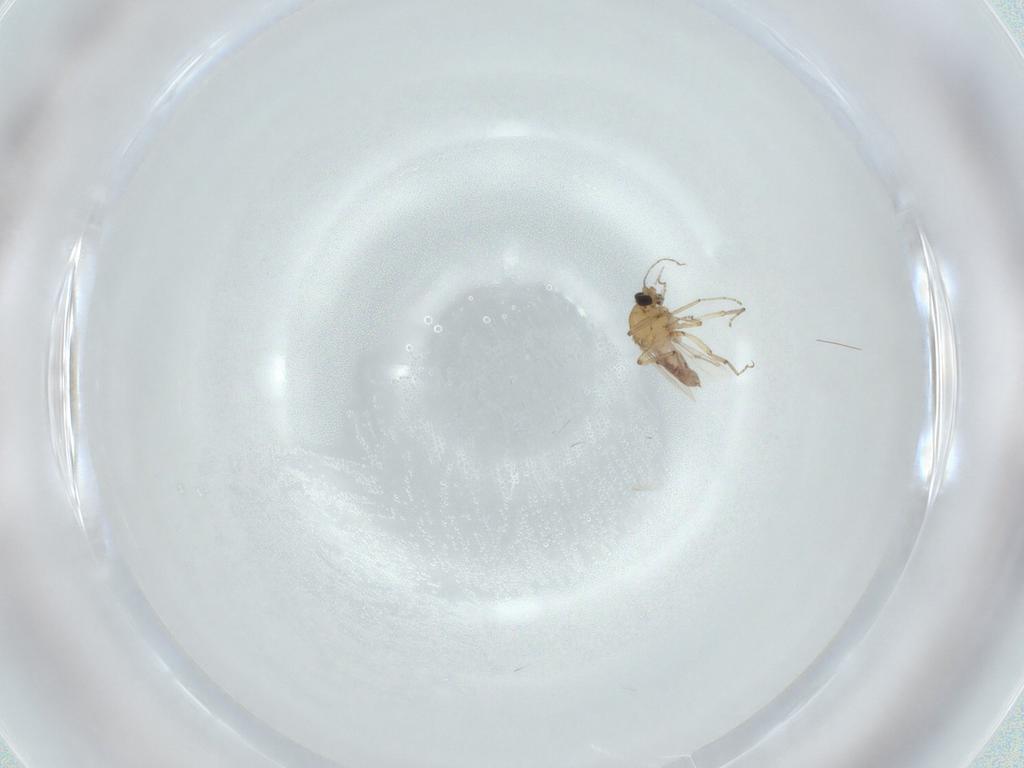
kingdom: Animalia
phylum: Arthropoda
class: Insecta
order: Diptera
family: Ceratopogonidae
